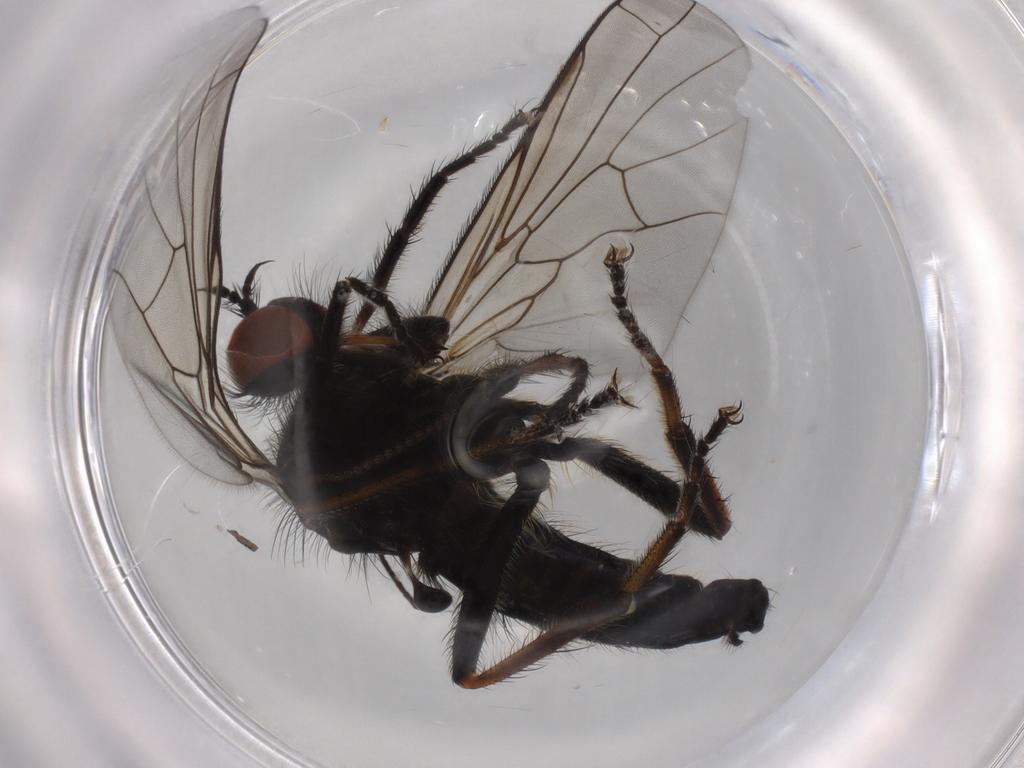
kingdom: Animalia
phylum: Arthropoda
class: Insecta
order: Diptera
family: Empididae
